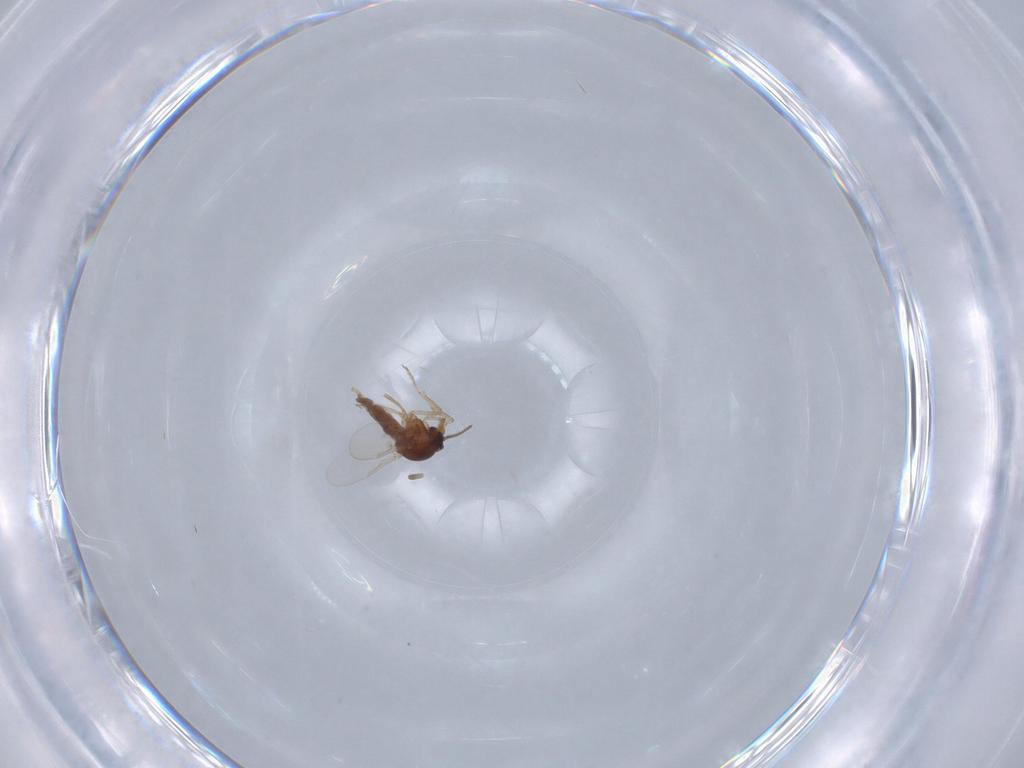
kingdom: Animalia
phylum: Arthropoda
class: Insecta
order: Diptera
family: Ceratopogonidae
